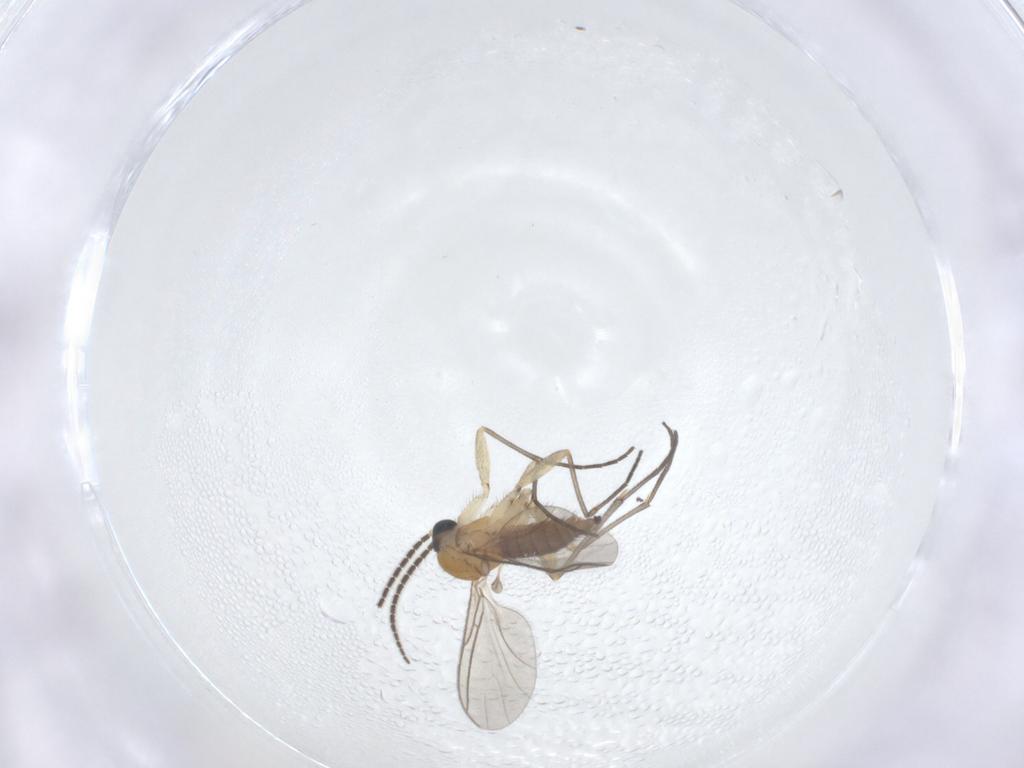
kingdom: Animalia
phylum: Arthropoda
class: Insecta
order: Diptera
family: Sciaridae
